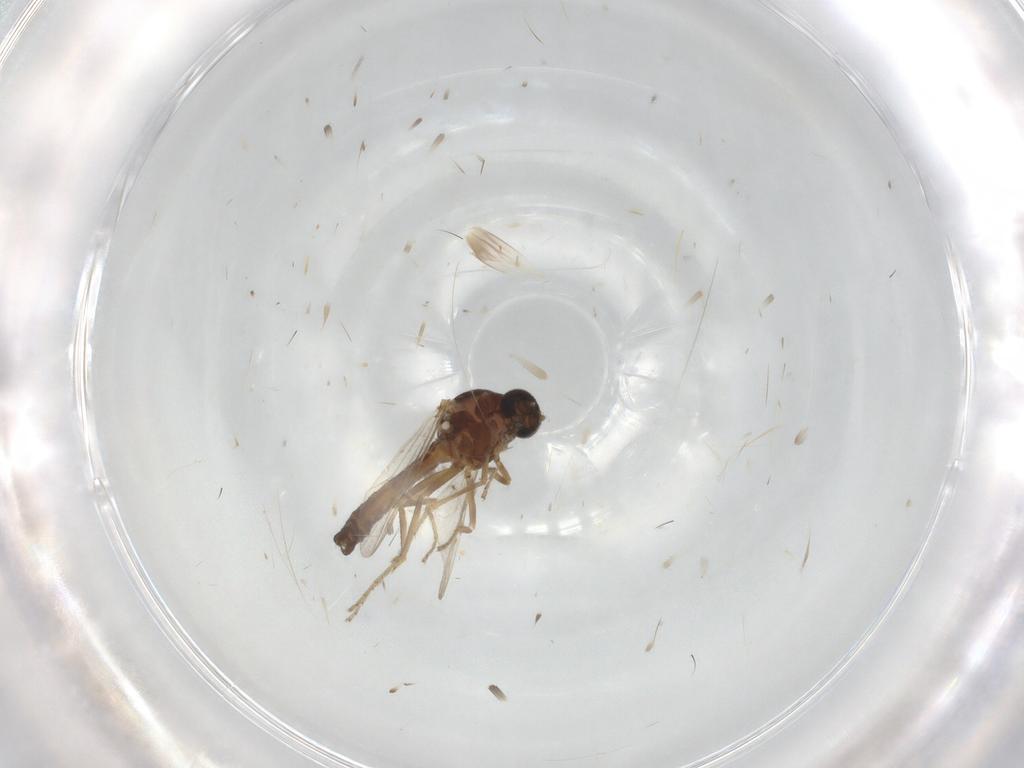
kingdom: Animalia
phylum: Arthropoda
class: Insecta
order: Diptera
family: Ceratopogonidae
